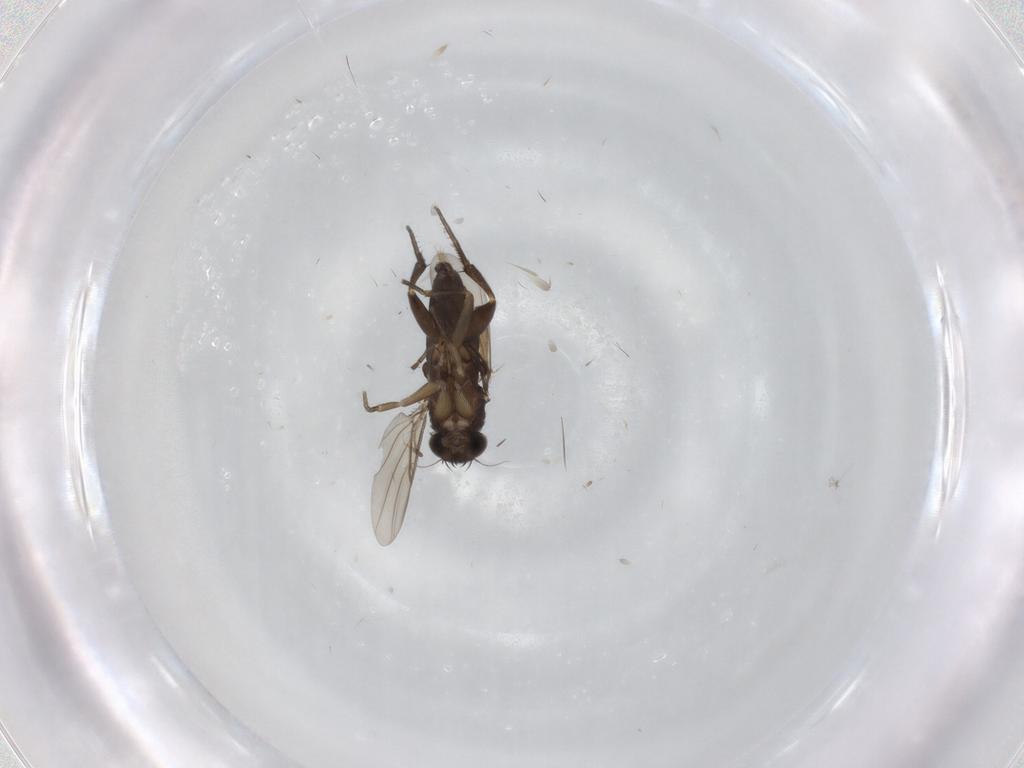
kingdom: Animalia
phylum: Arthropoda
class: Insecta
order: Diptera
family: Phoridae
